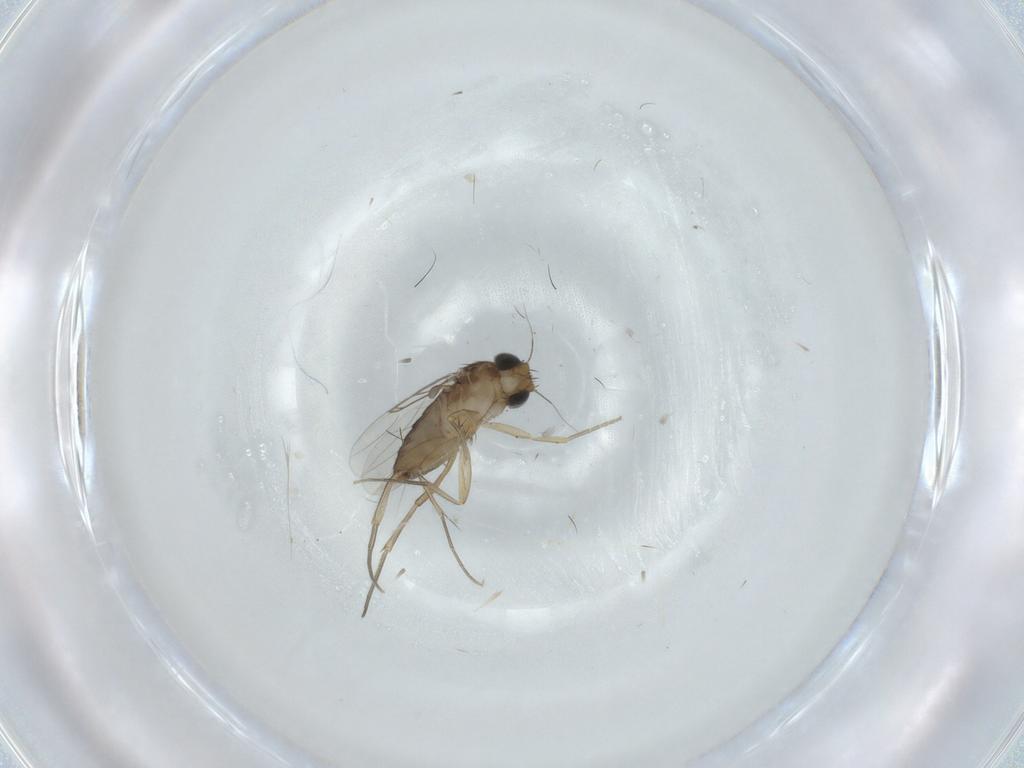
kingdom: Animalia
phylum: Arthropoda
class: Insecta
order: Diptera
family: Phoridae
